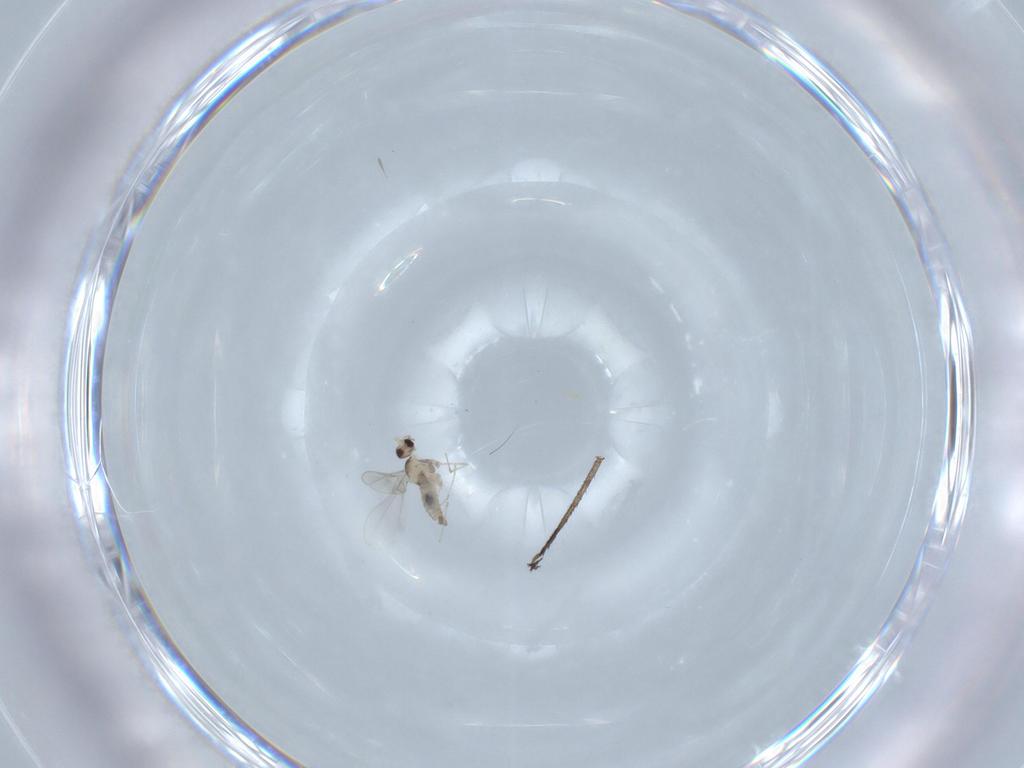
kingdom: Animalia
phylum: Arthropoda
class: Insecta
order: Diptera
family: Cecidomyiidae
